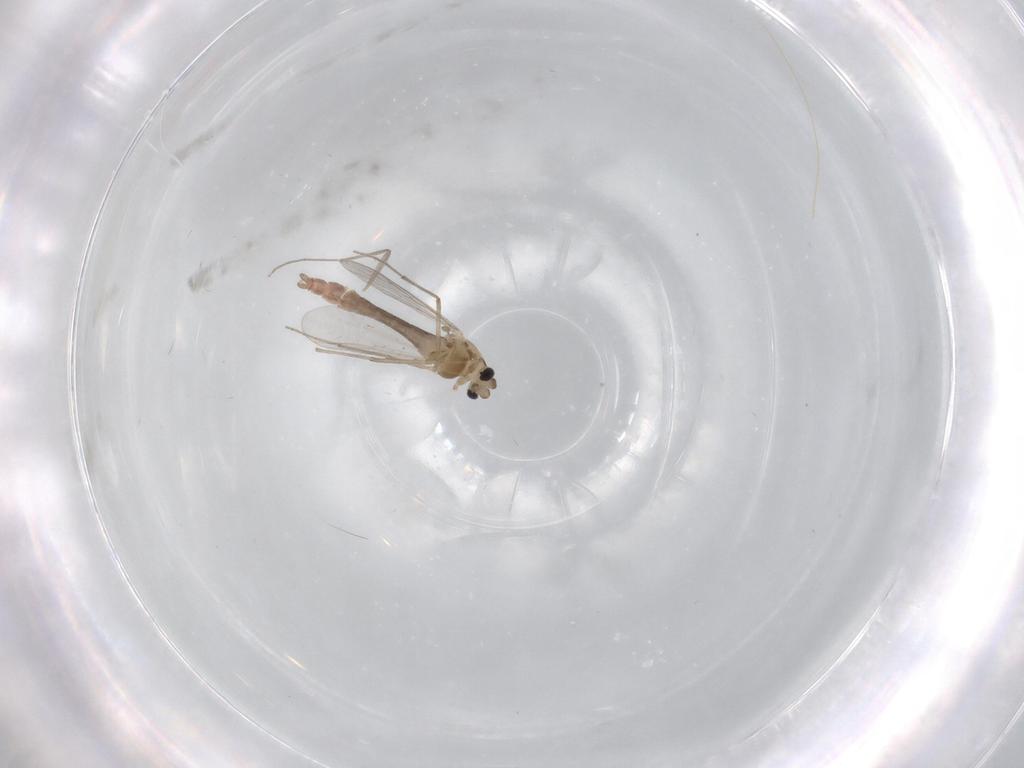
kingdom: Animalia
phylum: Arthropoda
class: Insecta
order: Diptera
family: Chironomidae
